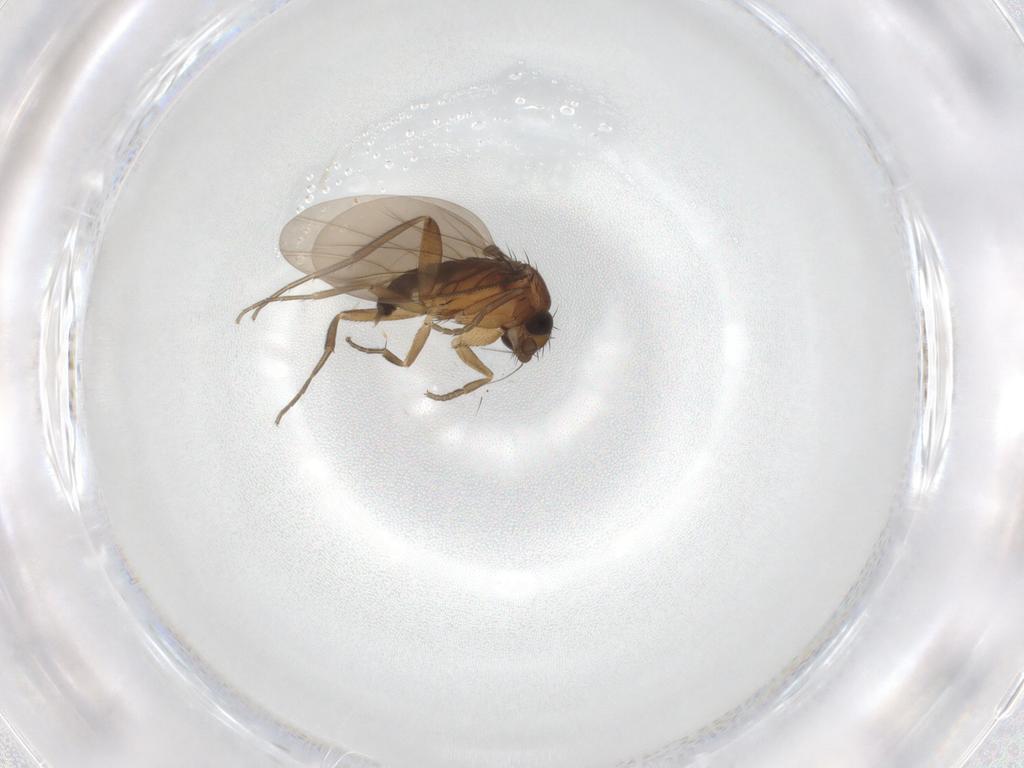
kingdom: Animalia
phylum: Arthropoda
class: Insecta
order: Diptera
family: Phoridae
